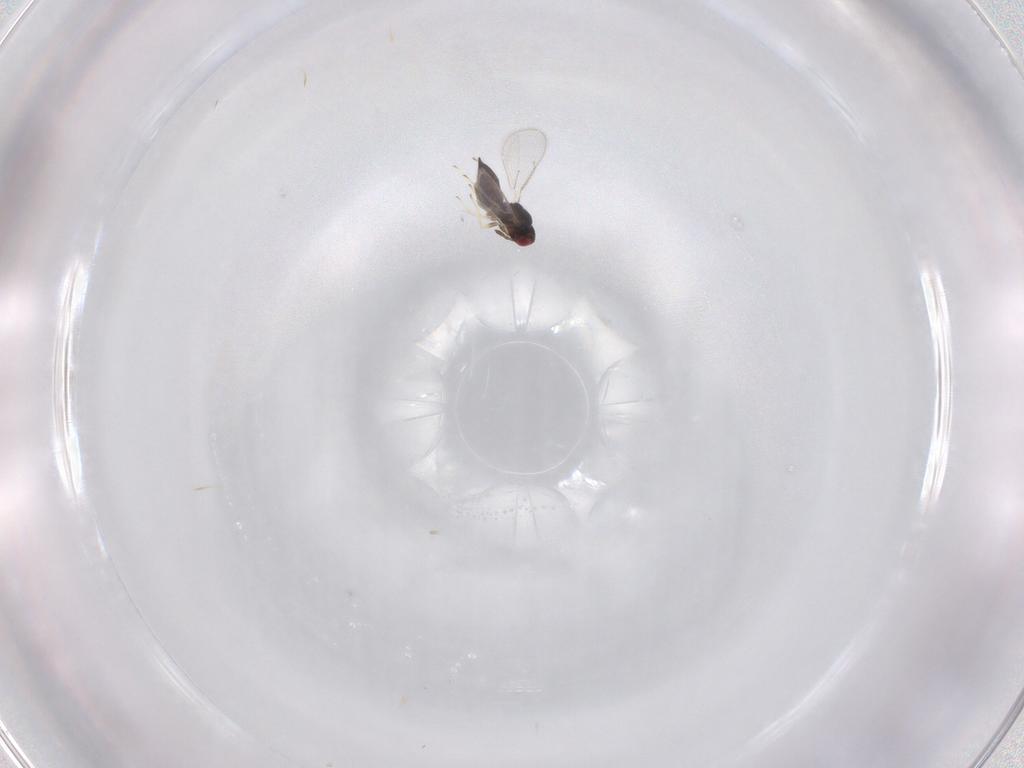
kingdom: Animalia
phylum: Arthropoda
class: Insecta
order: Hymenoptera
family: Eulophidae
